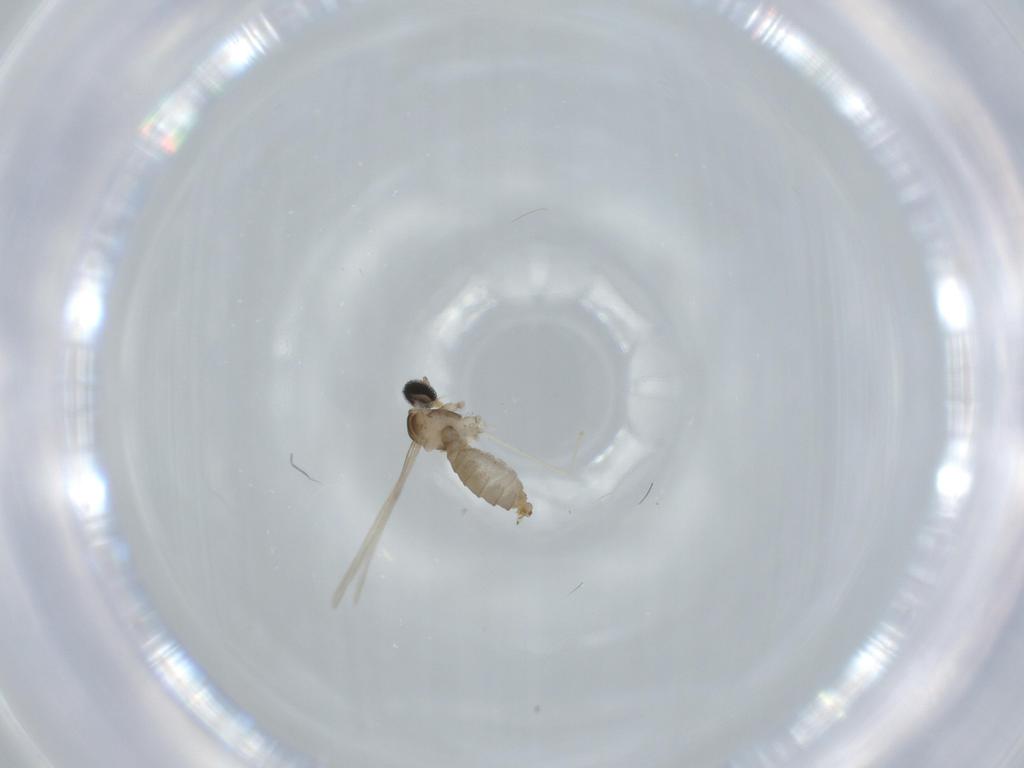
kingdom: Animalia
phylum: Arthropoda
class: Insecta
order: Diptera
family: Cecidomyiidae
